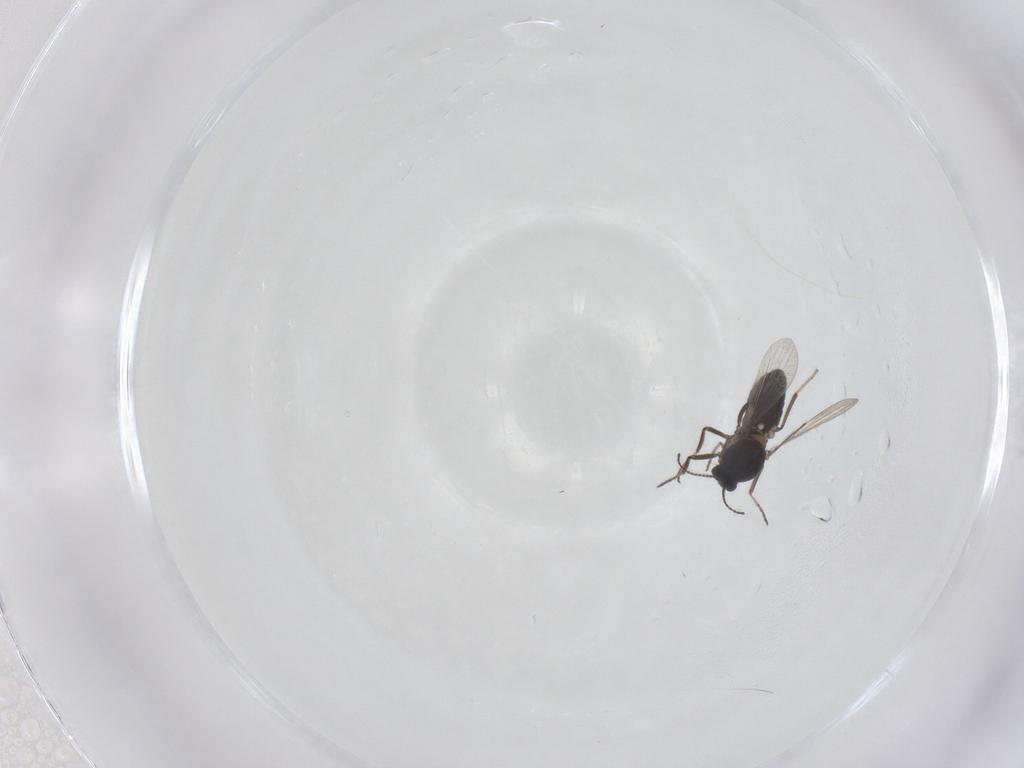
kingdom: Animalia
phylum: Arthropoda
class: Insecta
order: Diptera
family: Ceratopogonidae
